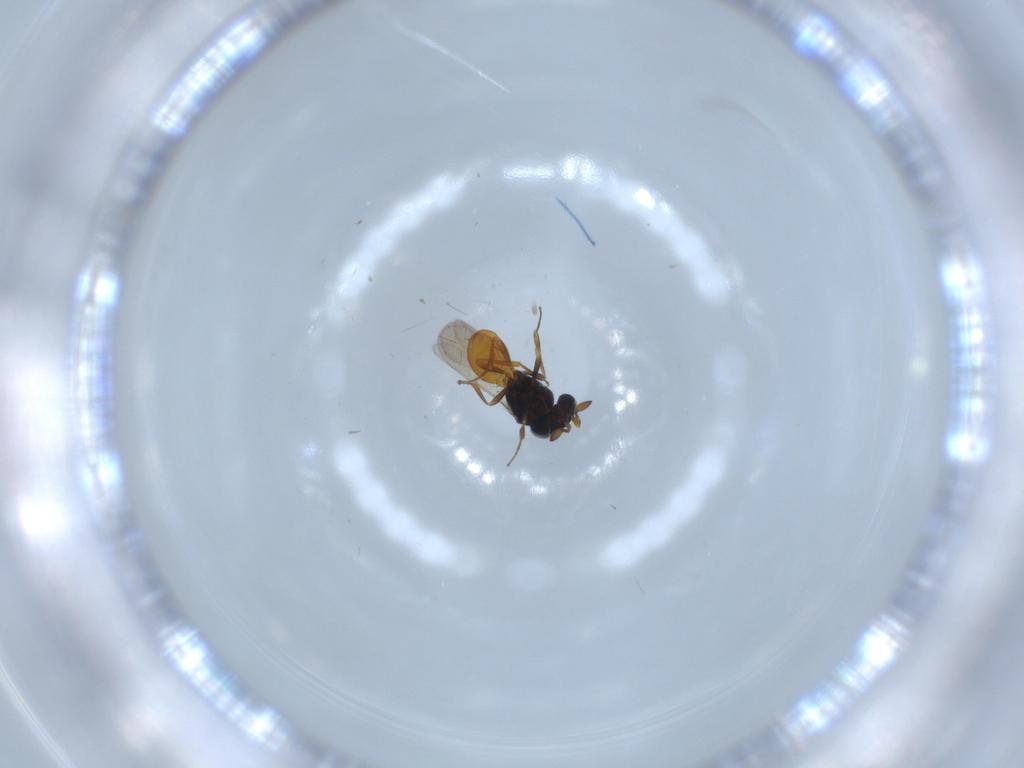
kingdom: Animalia
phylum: Arthropoda
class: Insecta
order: Hymenoptera
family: Scelionidae
